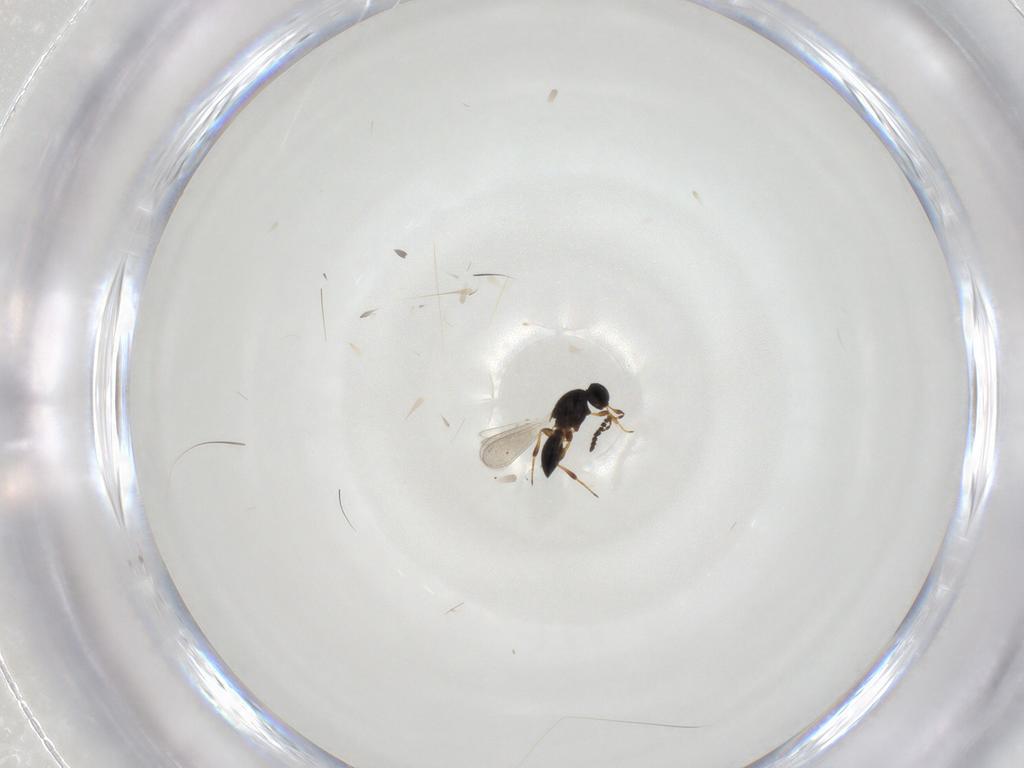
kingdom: Animalia
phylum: Arthropoda
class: Insecta
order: Hymenoptera
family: Platygastridae
